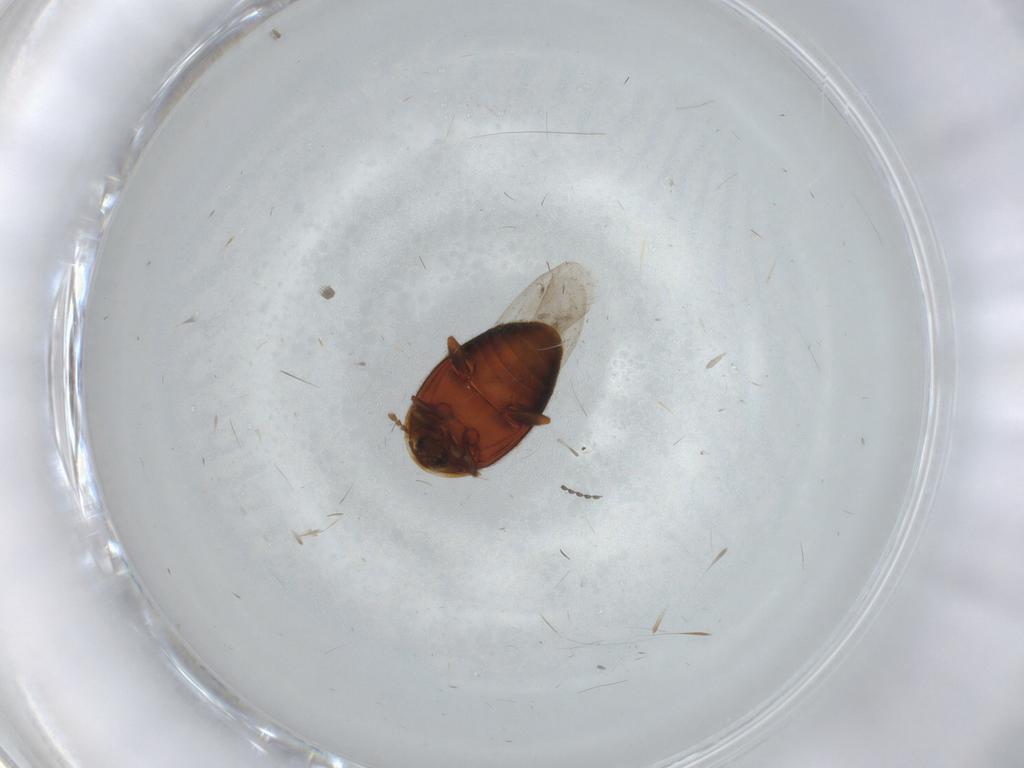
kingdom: Animalia
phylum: Arthropoda
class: Insecta
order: Coleoptera
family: Corylophidae
